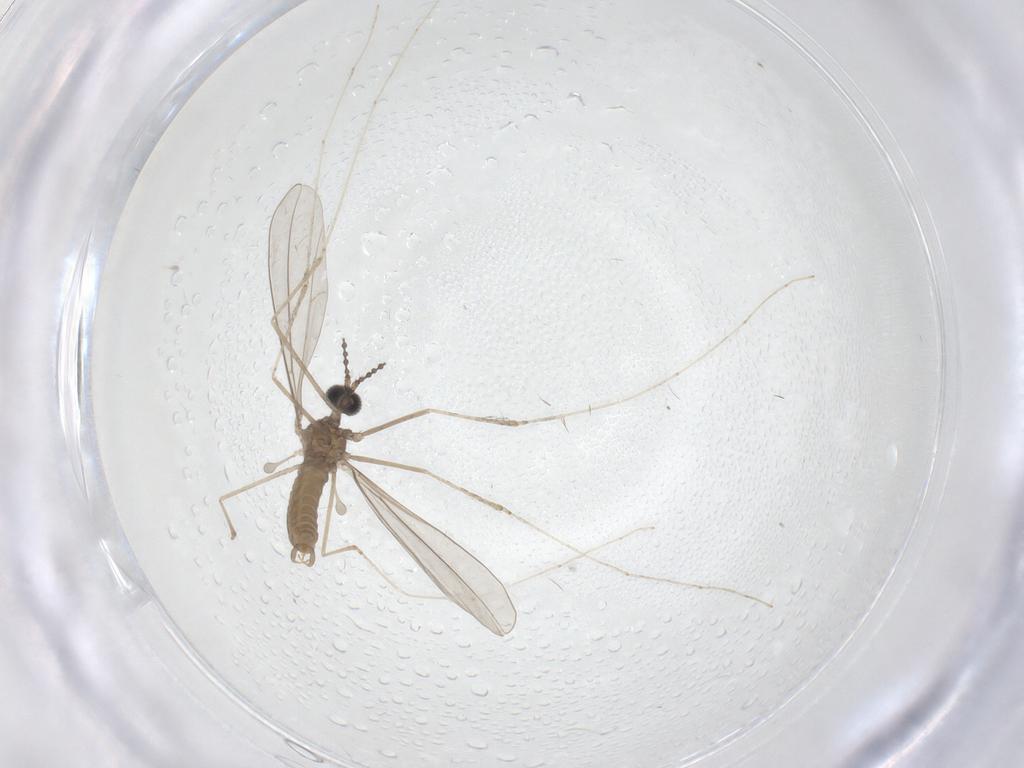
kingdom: Animalia
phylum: Arthropoda
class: Insecta
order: Diptera
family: Cecidomyiidae
